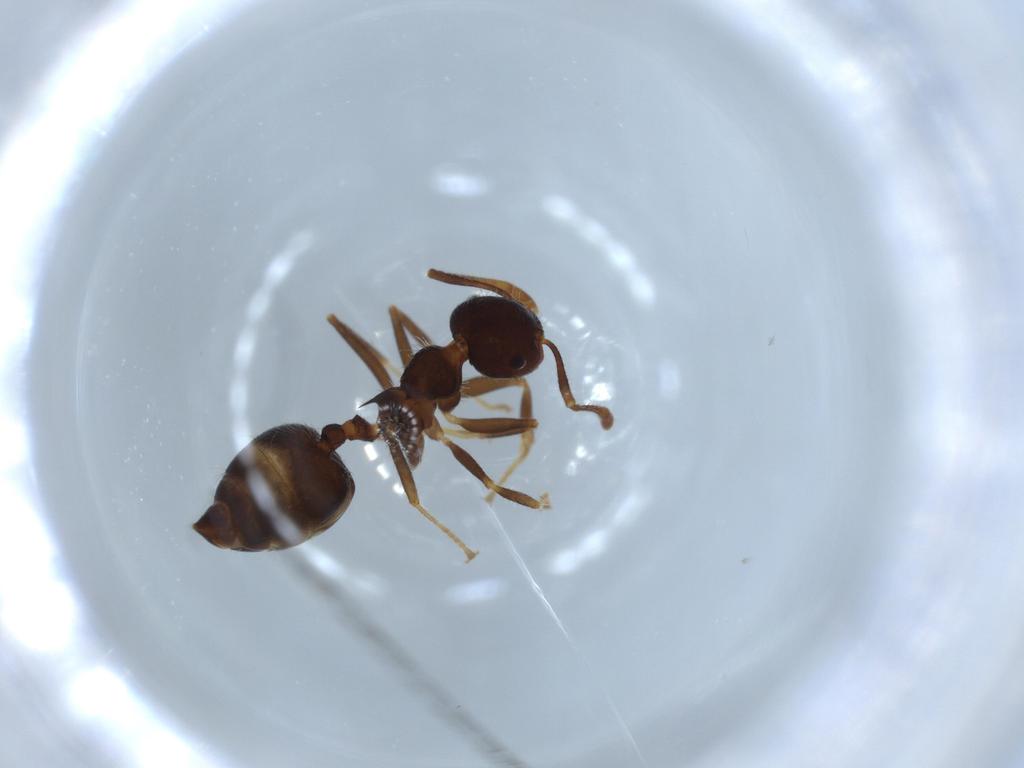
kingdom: Animalia
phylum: Arthropoda
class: Insecta
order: Hymenoptera
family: Formicidae
